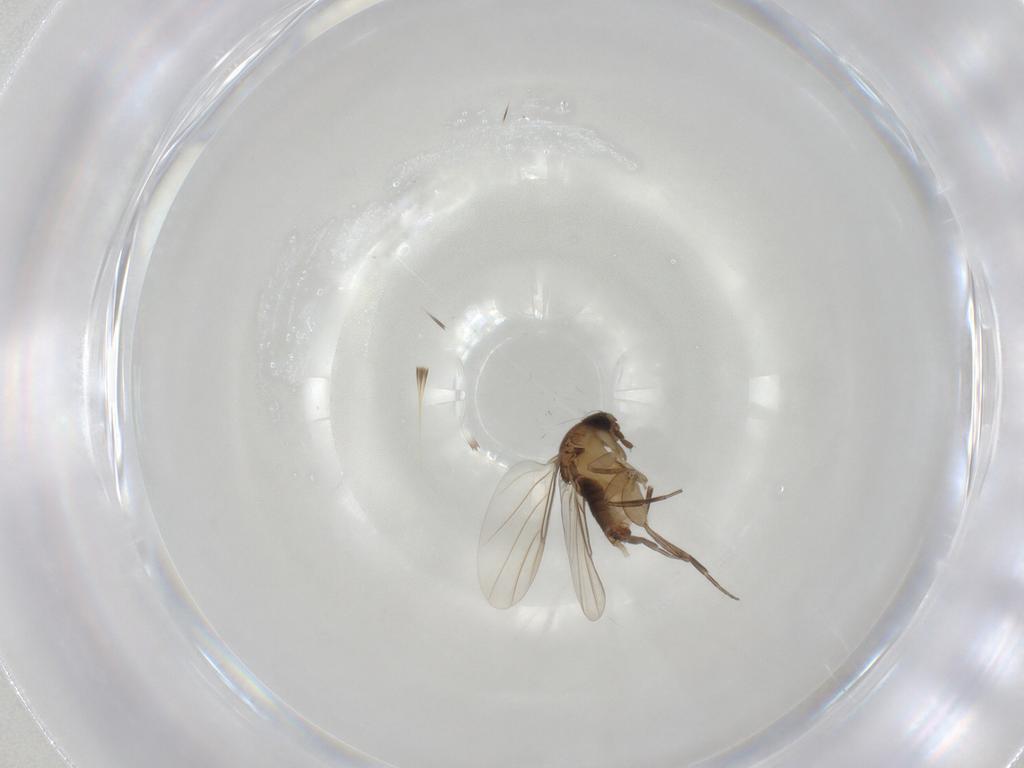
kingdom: Animalia
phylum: Arthropoda
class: Insecta
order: Diptera
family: Phoridae
